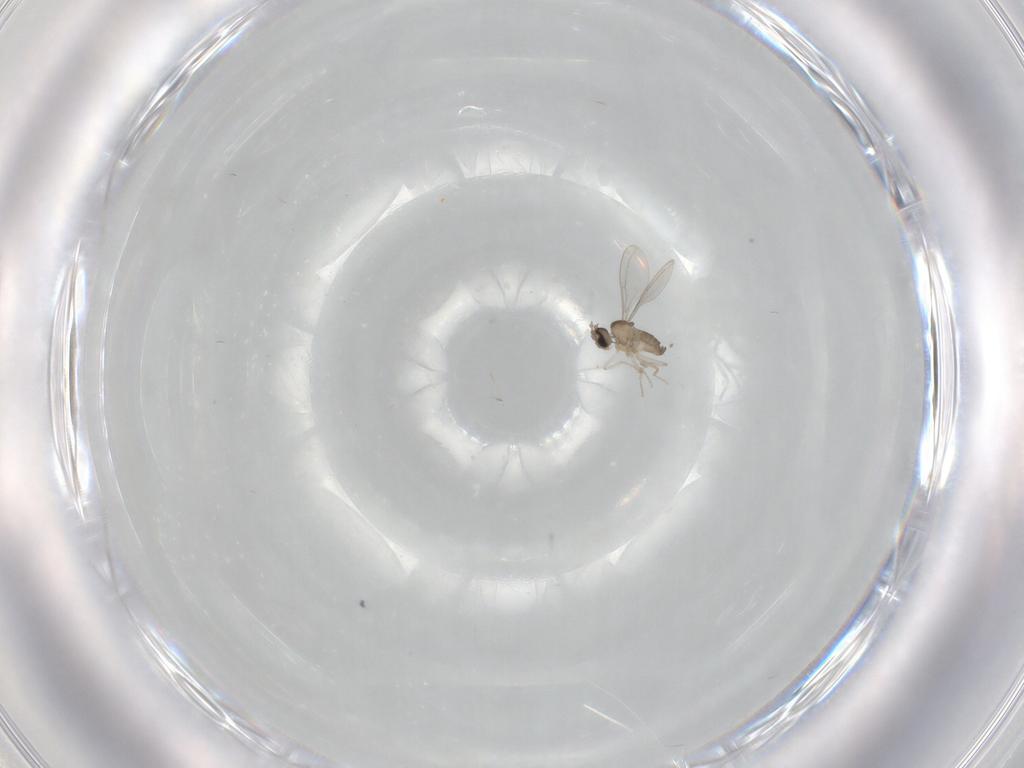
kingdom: Animalia
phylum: Arthropoda
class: Insecta
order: Diptera
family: Cecidomyiidae
